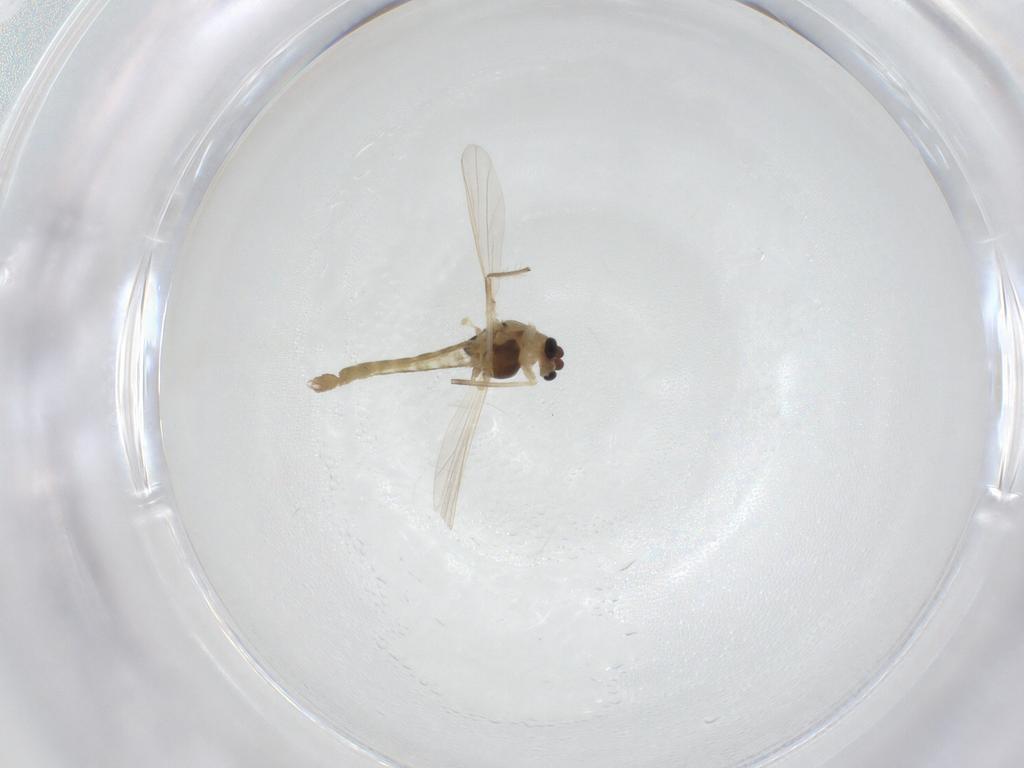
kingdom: Animalia
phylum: Arthropoda
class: Insecta
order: Diptera
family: Chironomidae
